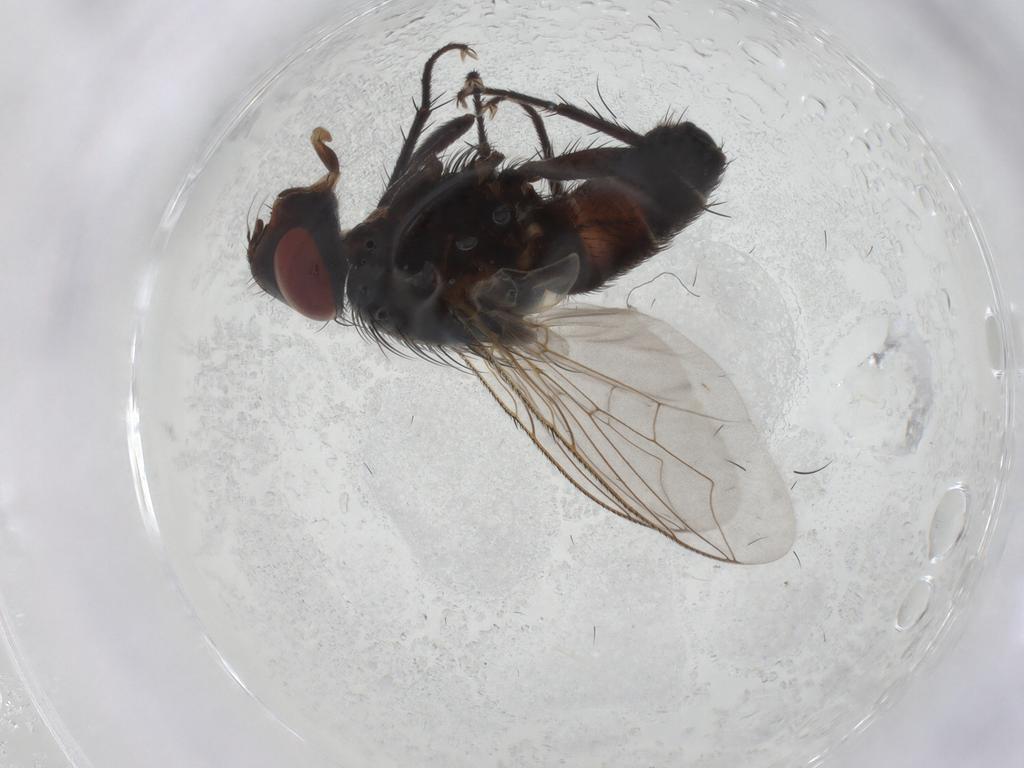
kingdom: Animalia
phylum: Arthropoda
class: Insecta
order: Diptera
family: Sarcophagidae
